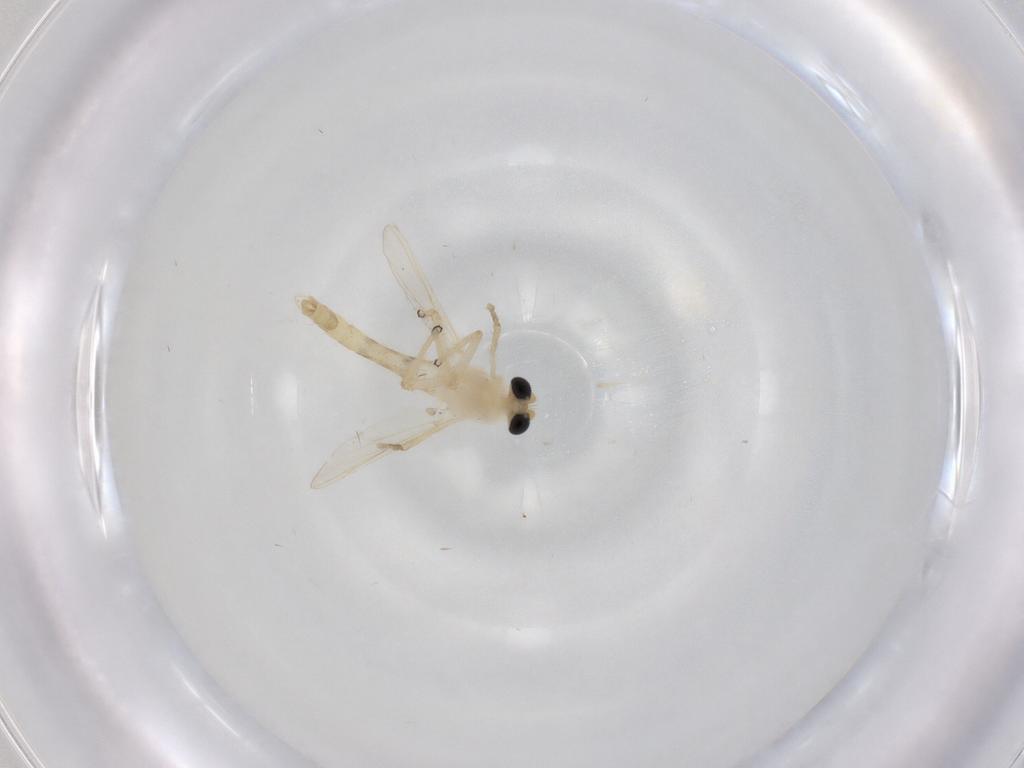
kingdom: Animalia
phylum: Arthropoda
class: Insecta
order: Diptera
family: Chironomidae
